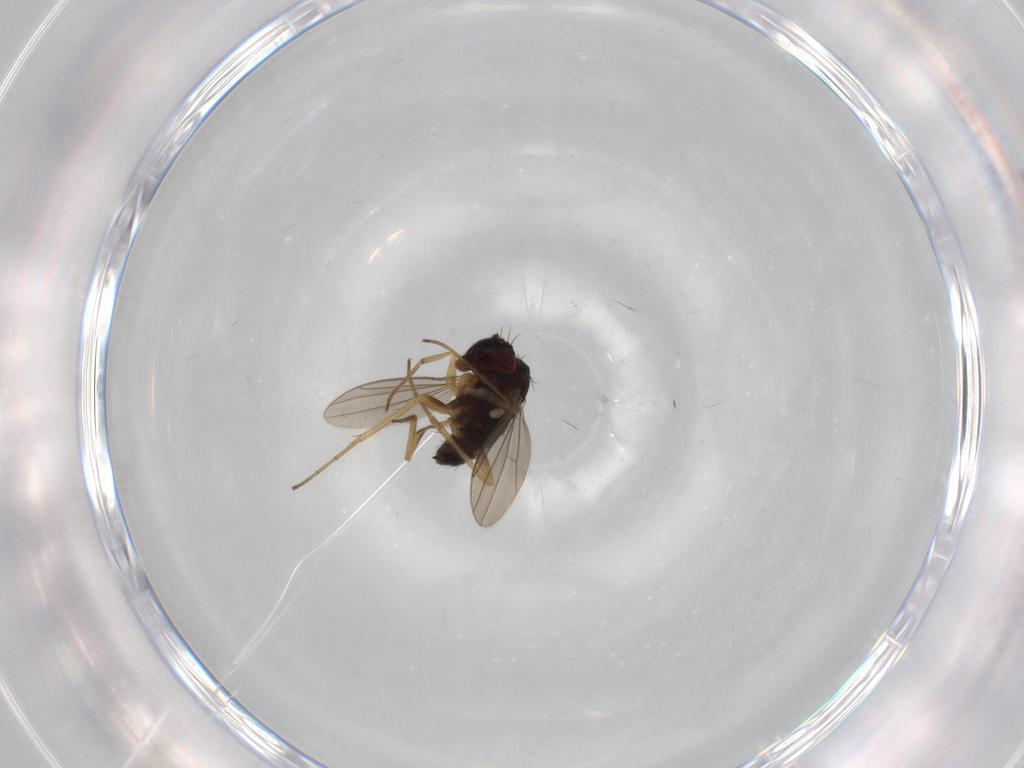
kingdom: Animalia
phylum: Arthropoda
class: Insecta
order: Diptera
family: Dolichopodidae
